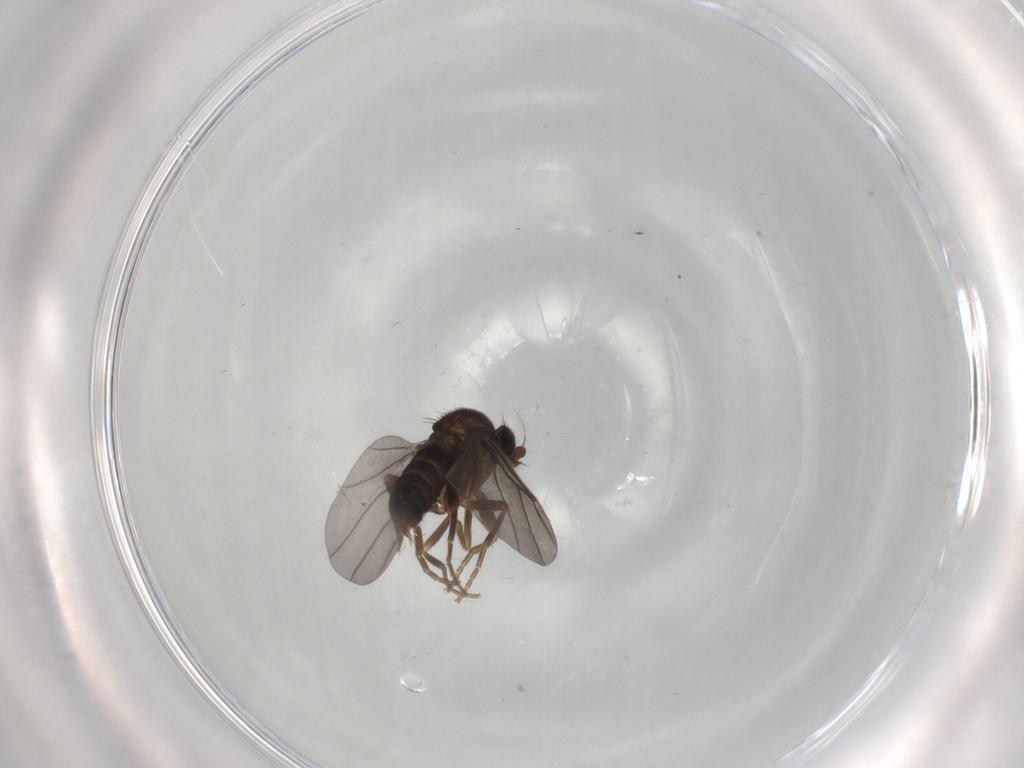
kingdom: Animalia
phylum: Arthropoda
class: Insecta
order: Diptera
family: Phoridae
